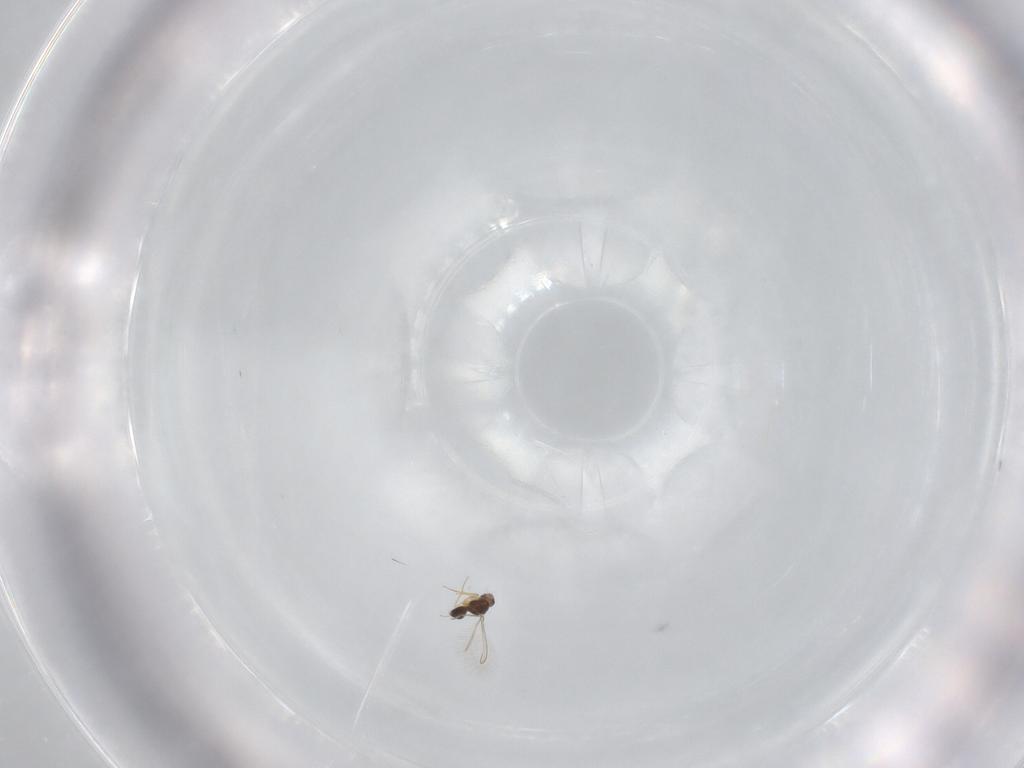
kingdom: Animalia
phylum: Arthropoda
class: Insecta
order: Hymenoptera
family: Mymaridae
